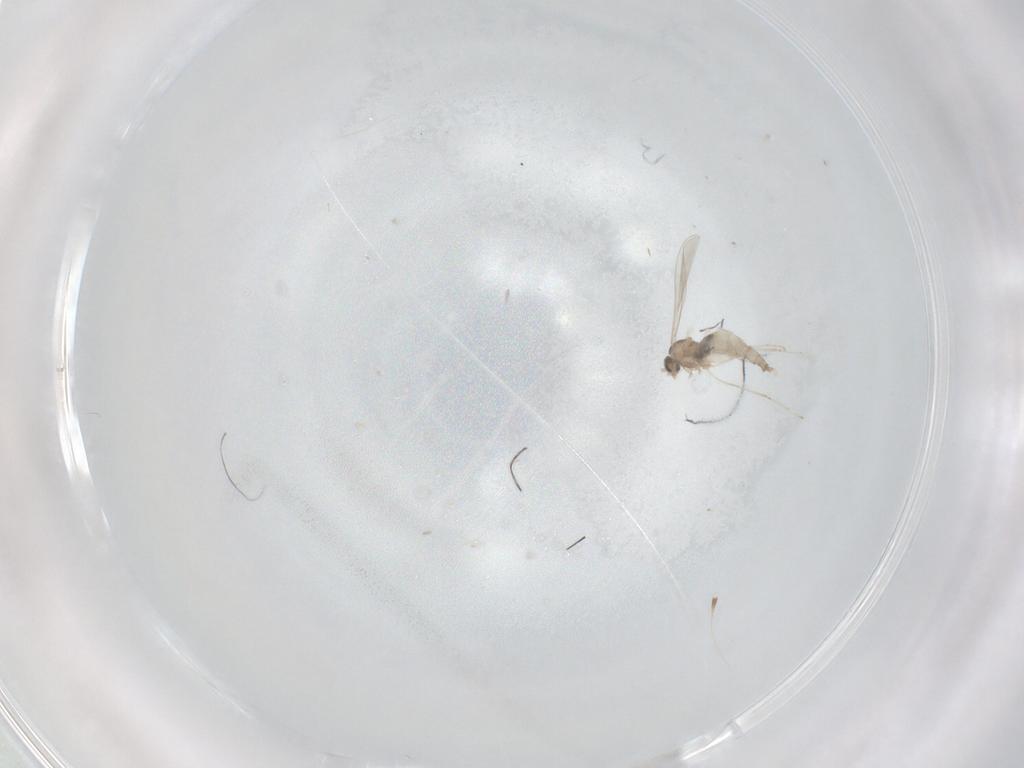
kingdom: Animalia
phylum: Arthropoda
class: Insecta
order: Diptera
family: Cecidomyiidae
